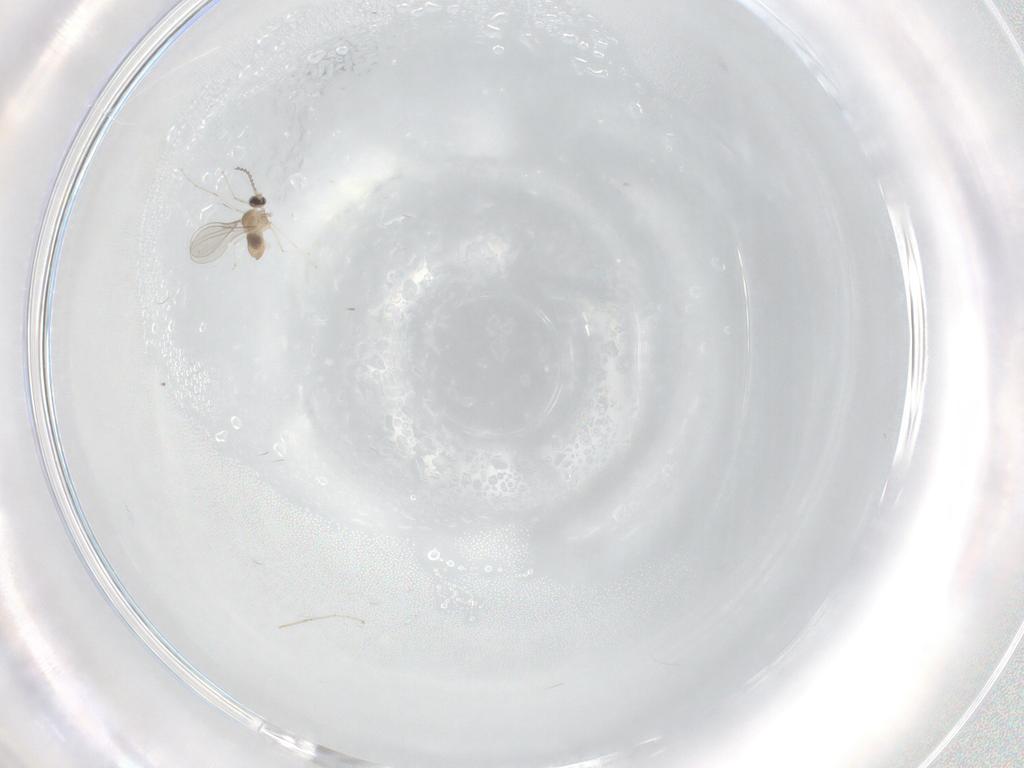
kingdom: Animalia
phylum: Arthropoda
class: Insecta
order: Diptera
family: Cecidomyiidae
